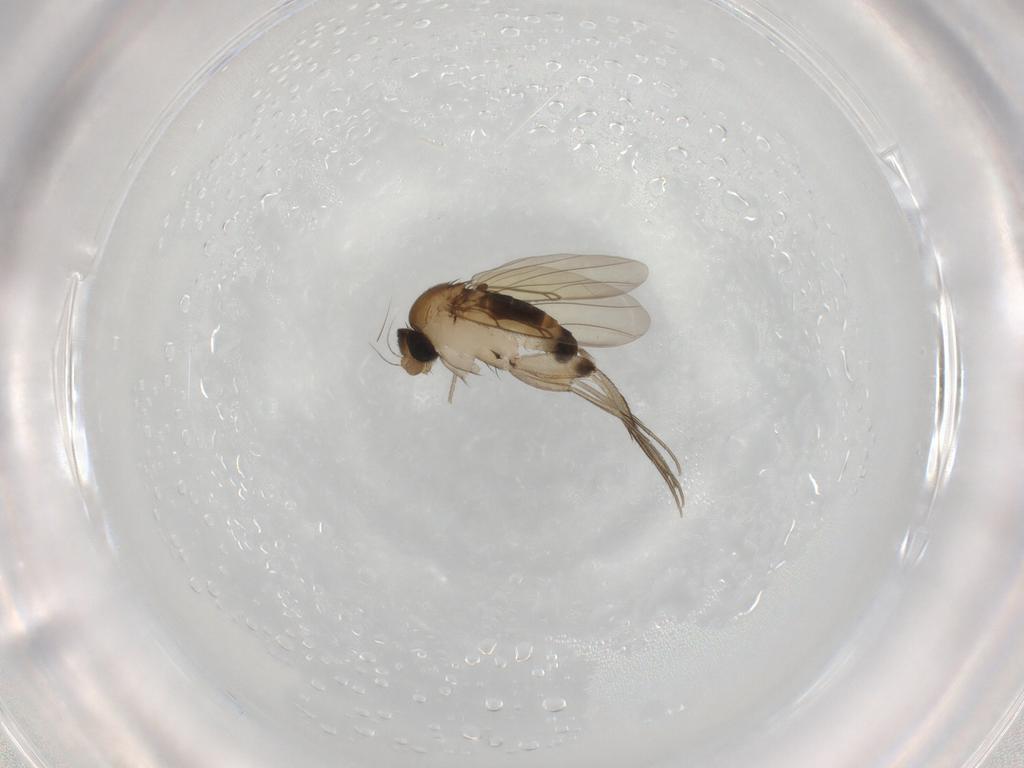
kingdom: Animalia
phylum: Arthropoda
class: Insecta
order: Diptera
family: Phoridae
